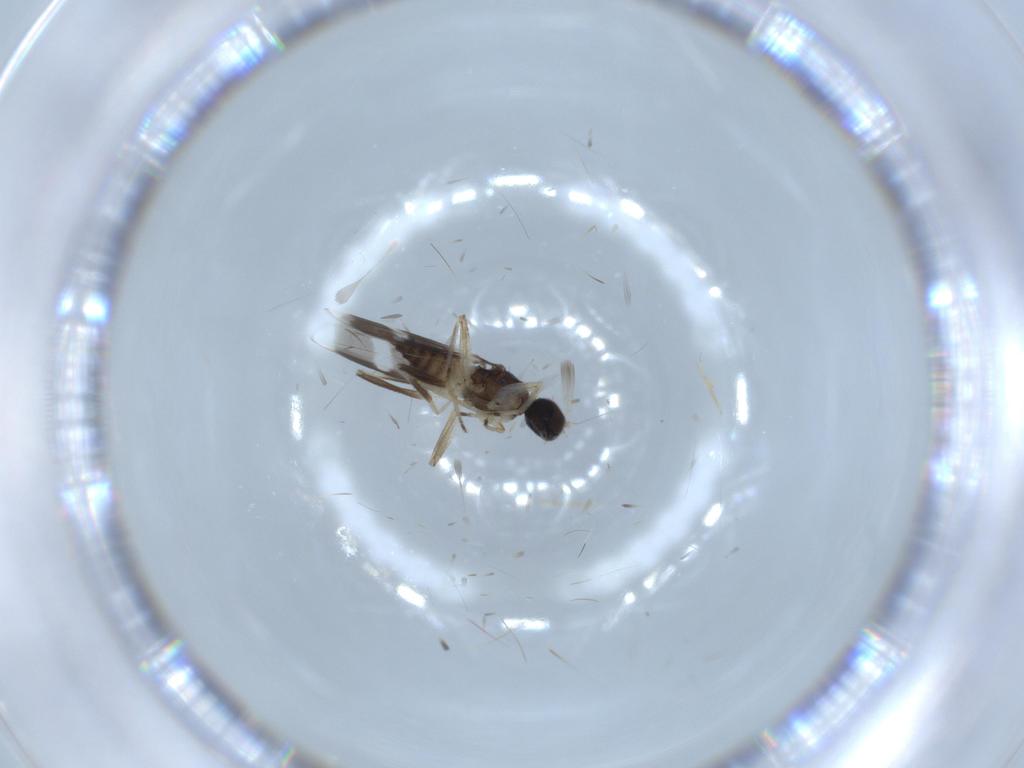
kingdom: Animalia
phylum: Arthropoda
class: Insecta
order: Diptera
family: Hybotidae
